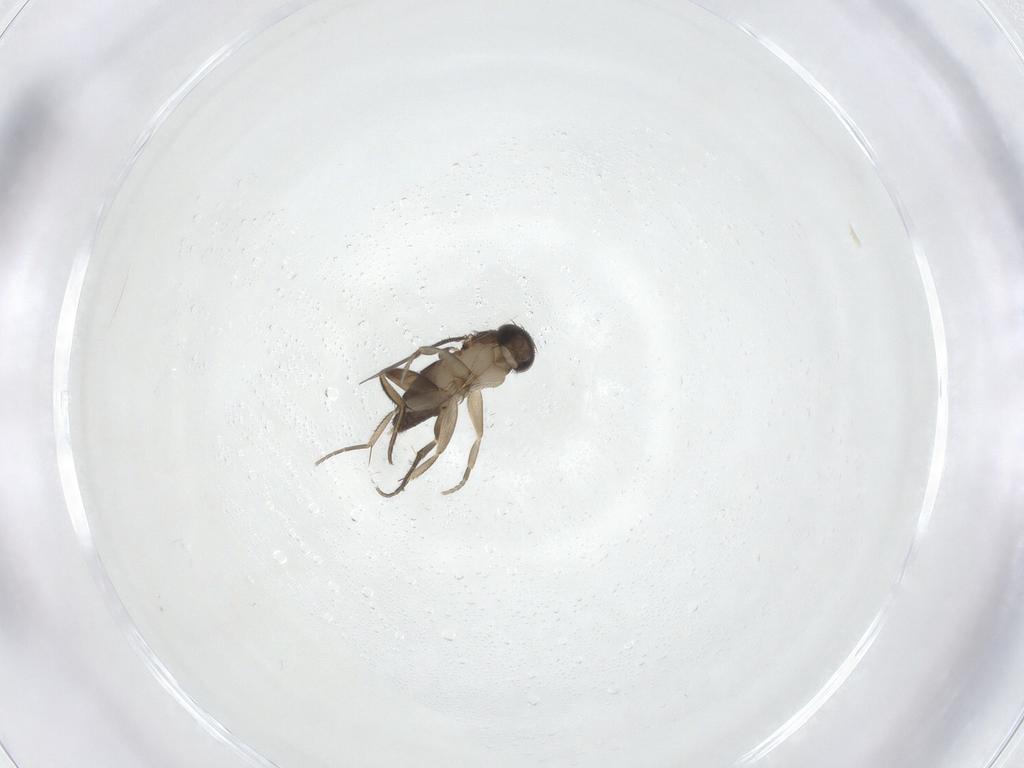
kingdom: Animalia
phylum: Arthropoda
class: Insecta
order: Diptera
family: Phoridae
